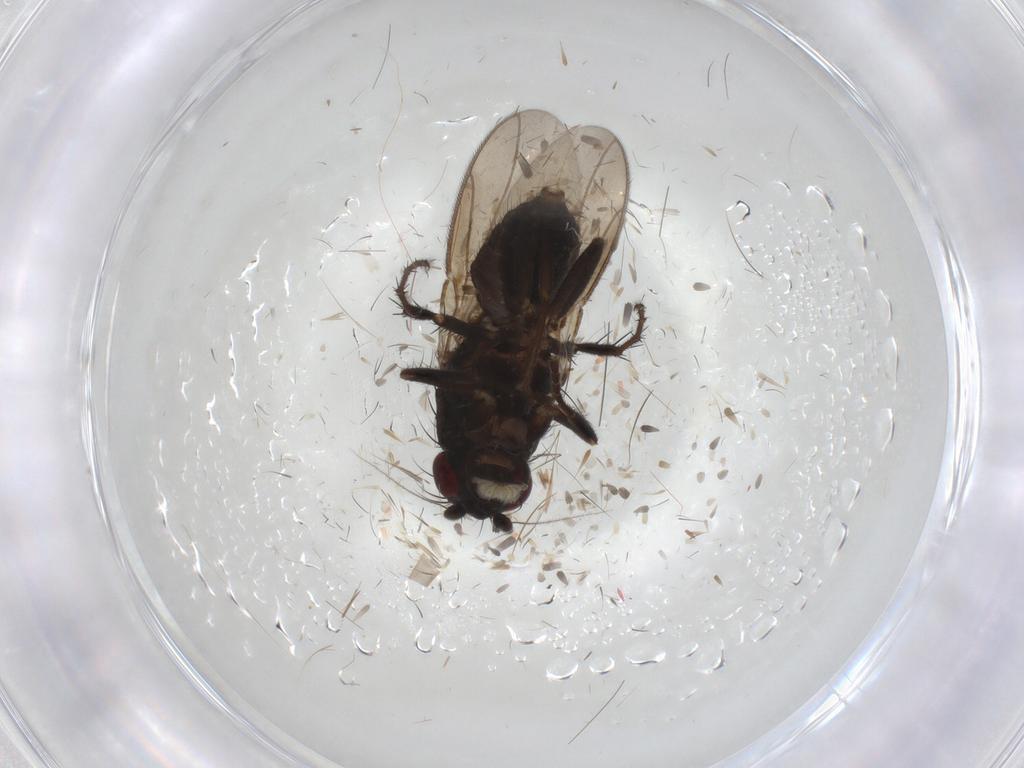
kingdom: Animalia
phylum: Arthropoda
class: Insecta
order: Diptera
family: Sphaeroceridae
